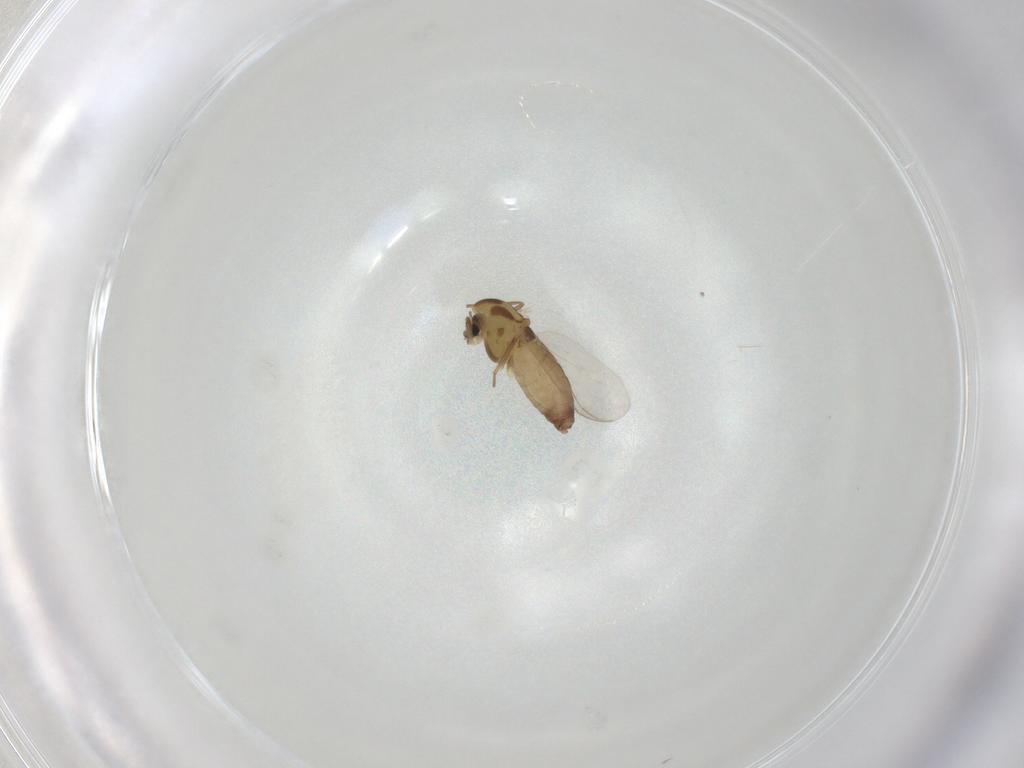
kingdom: Animalia
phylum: Arthropoda
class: Insecta
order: Diptera
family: Chironomidae
